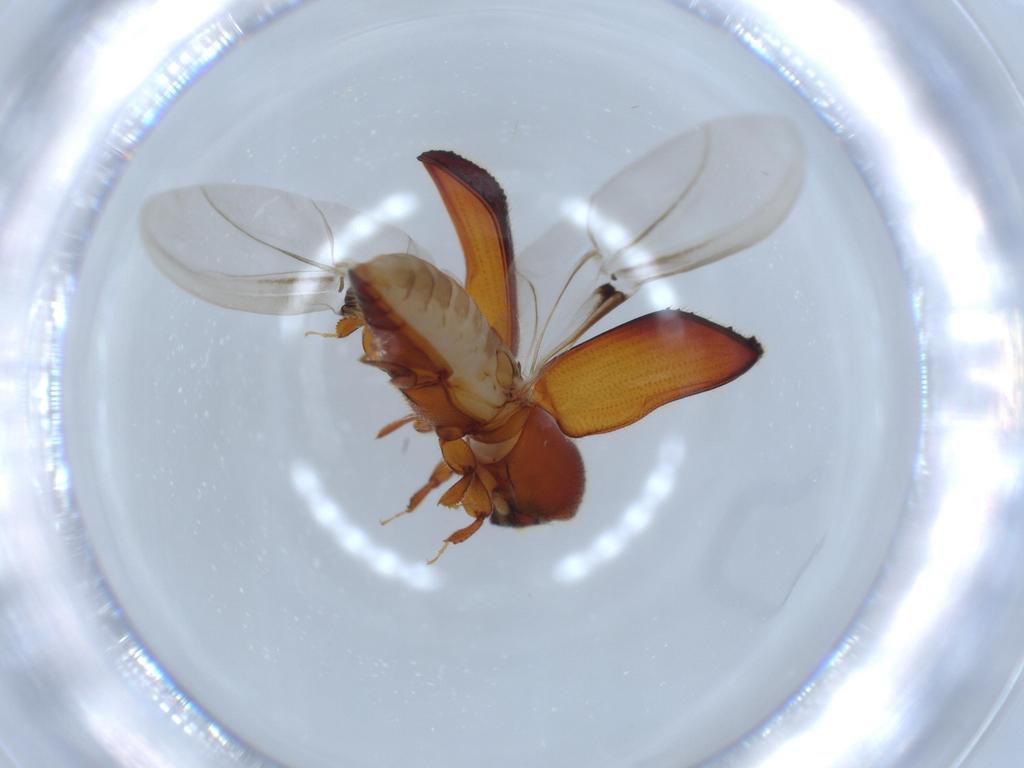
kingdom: Animalia
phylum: Arthropoda
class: Insecta
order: Coleoptera
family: Curculionidae
